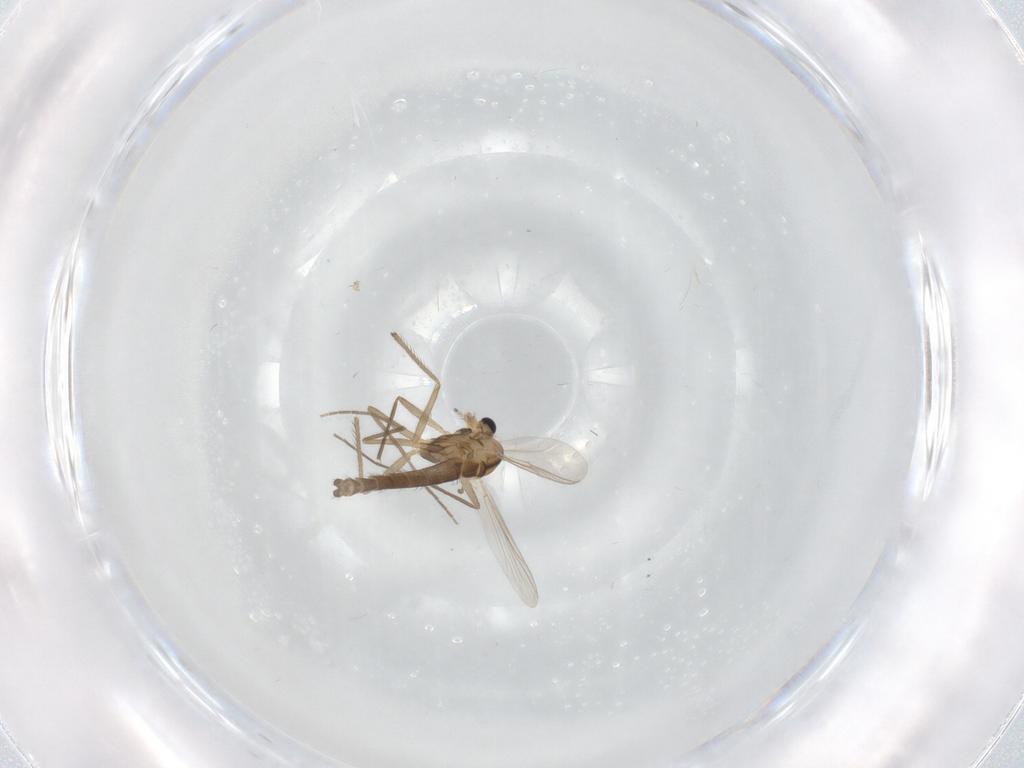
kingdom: Animalia
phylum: Arthropoda
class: Insecta
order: Diptera
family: Chironomidae
